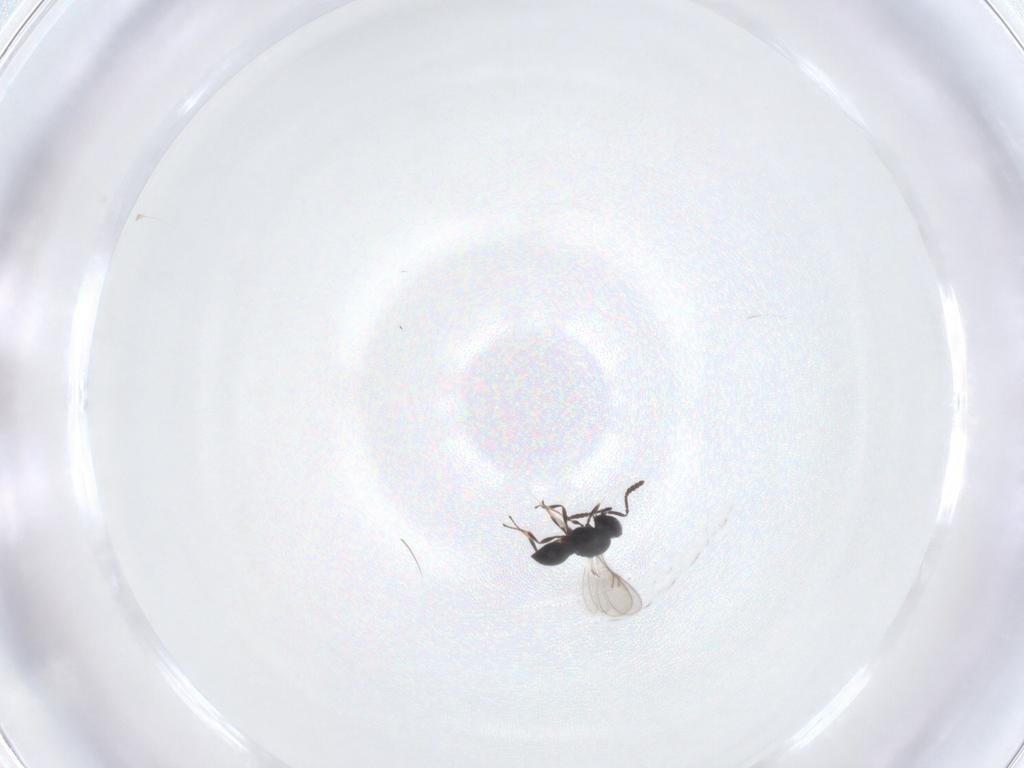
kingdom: Animalia
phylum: Arthropoda
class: Insecta
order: Hymenoptera
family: Scelionidae
